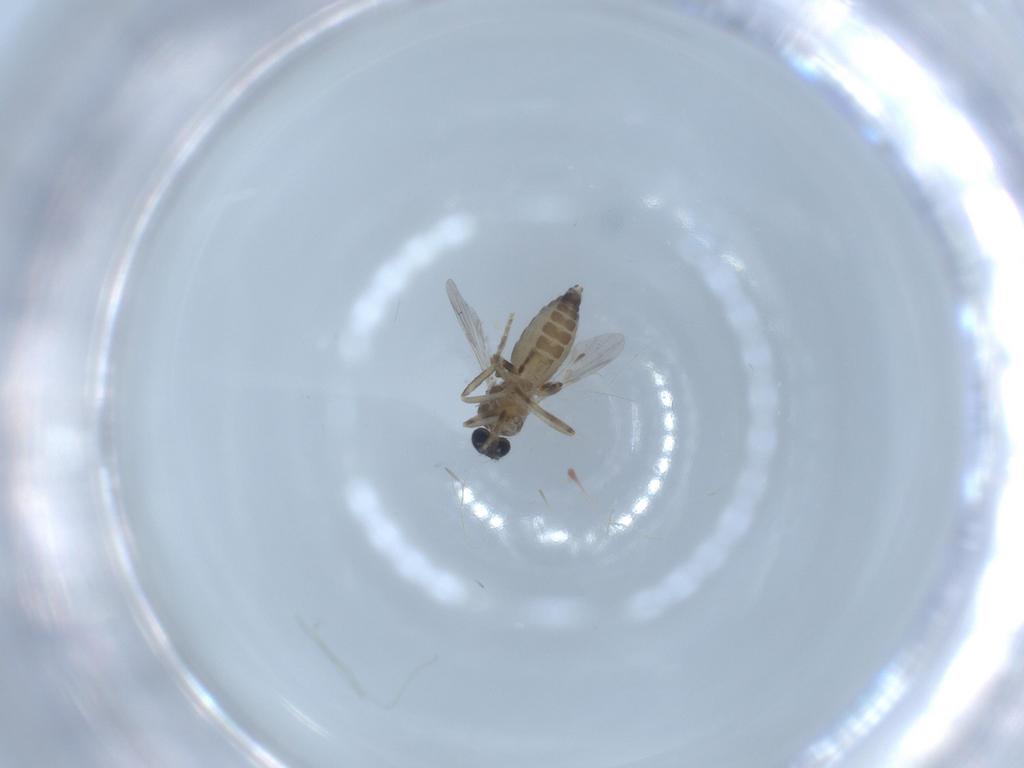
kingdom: Animalia
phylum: Arthropoda
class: Insecta
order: Diptera
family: Ceratopogonidae
